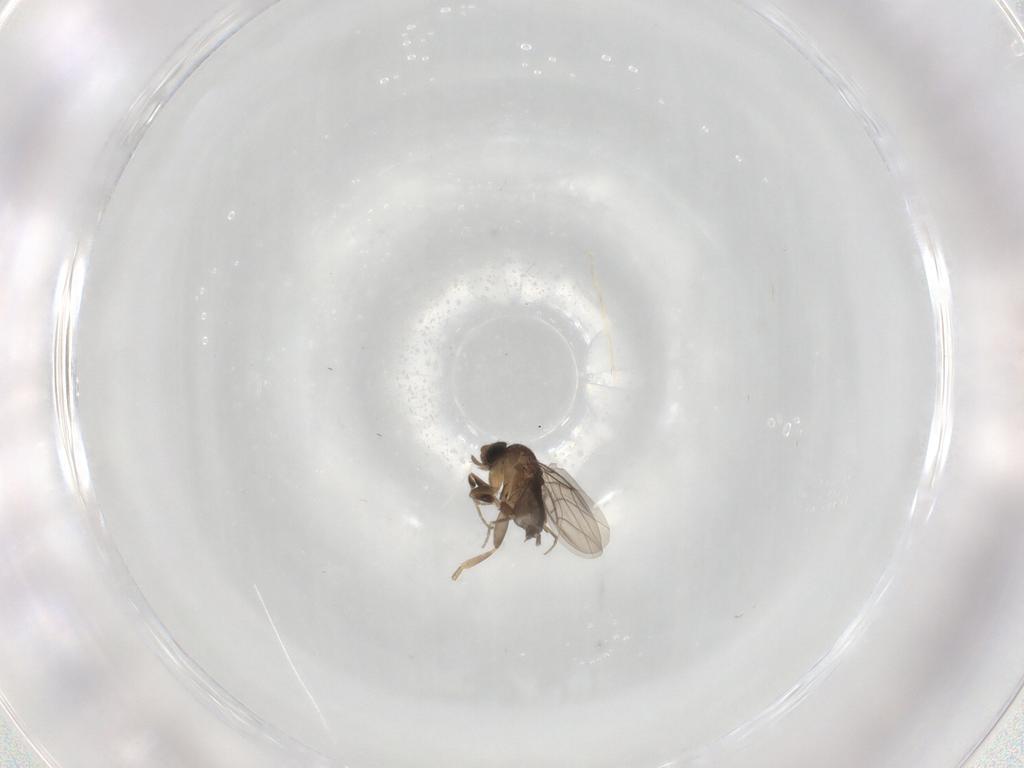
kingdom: Animalia
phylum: Arthropoda
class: Insecta
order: Diptera
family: Phoridae
